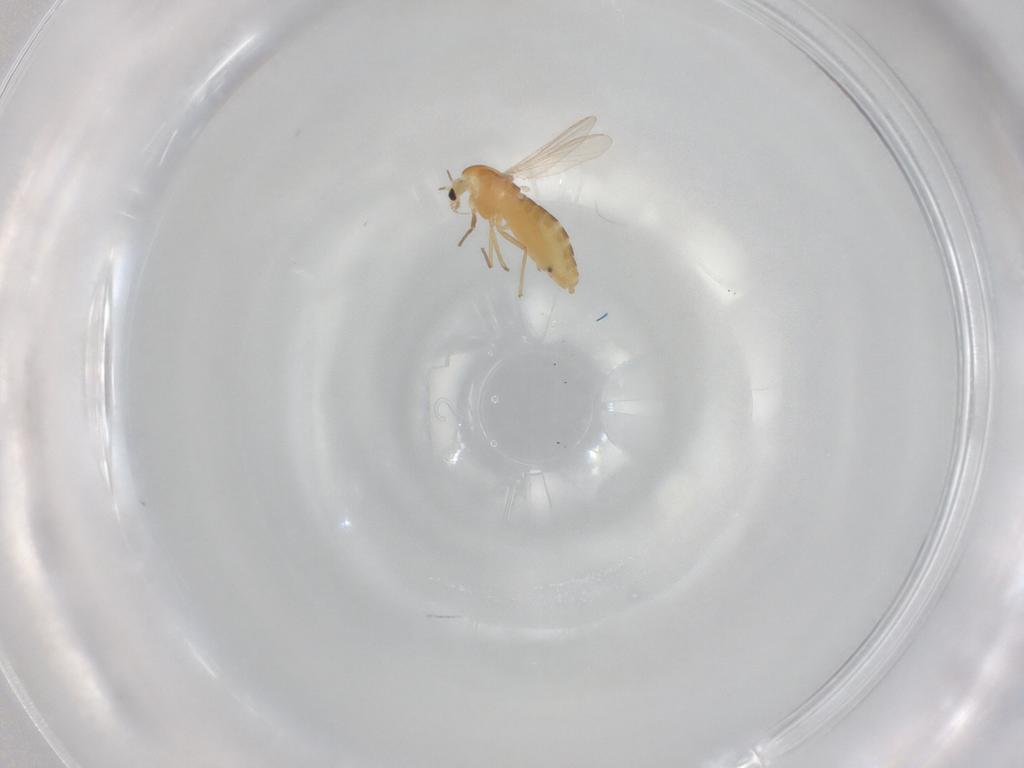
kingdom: Animalia
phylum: Arthropoda
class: Insecta
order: Diptera
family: Chironomidae
